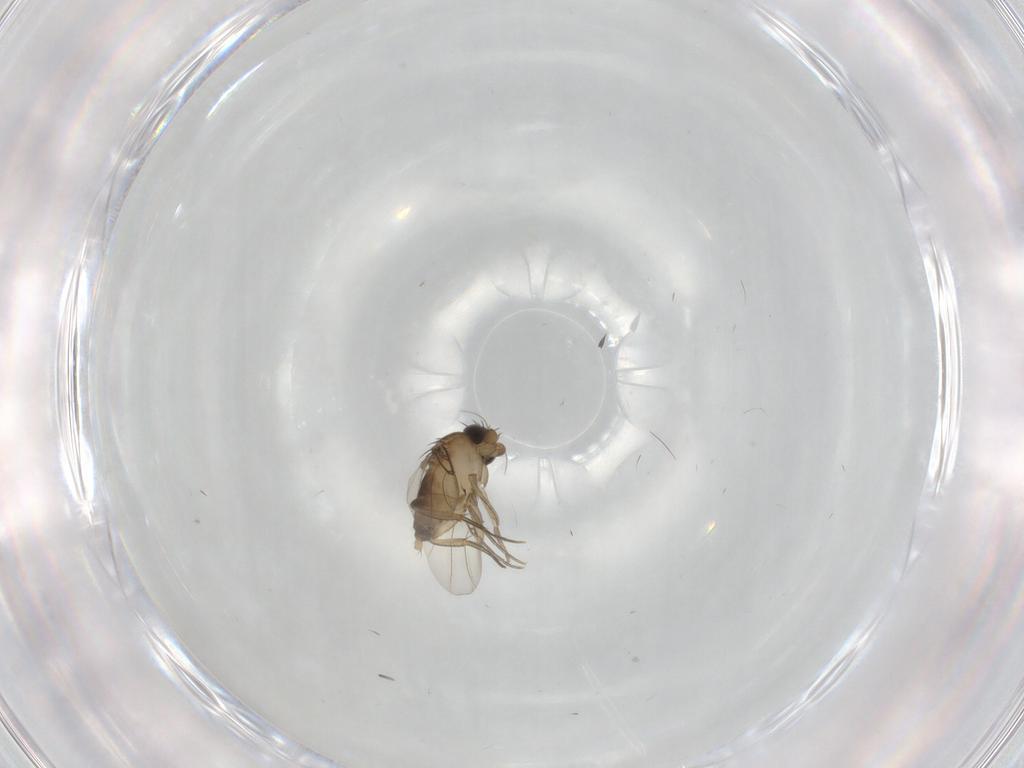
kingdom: Animalia
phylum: Arthropoda
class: Insecta
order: Diptera
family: Phoridae
